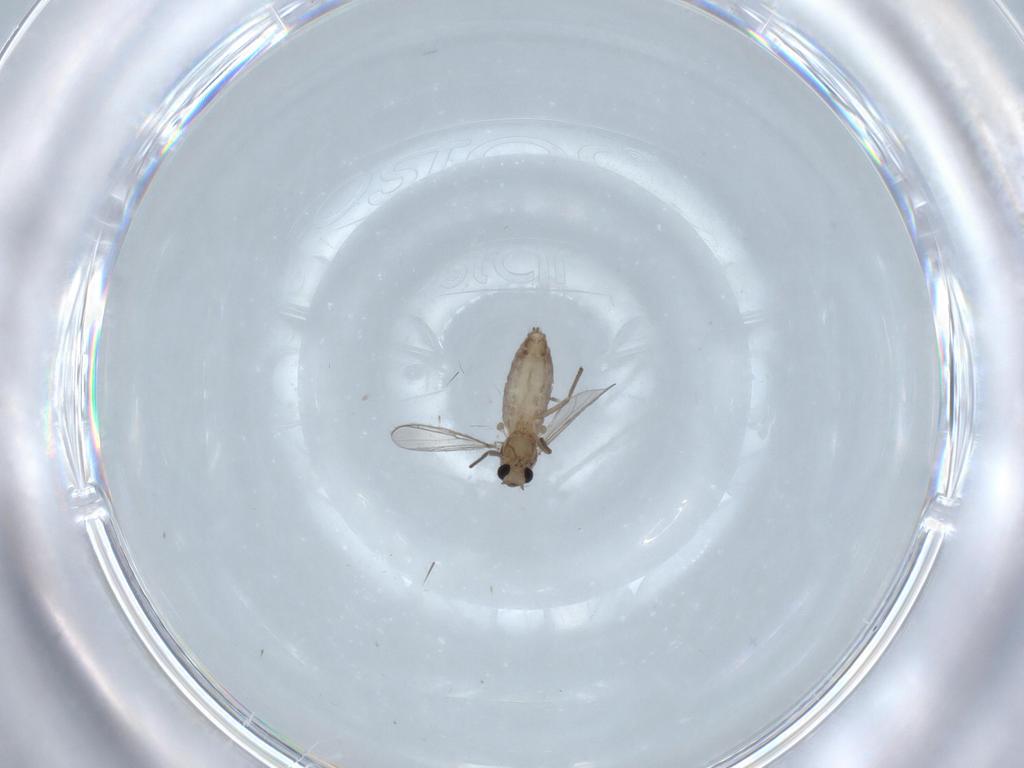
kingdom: Animalia
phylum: Arthropoda
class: Insecta
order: Diptera
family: Chironomidae
